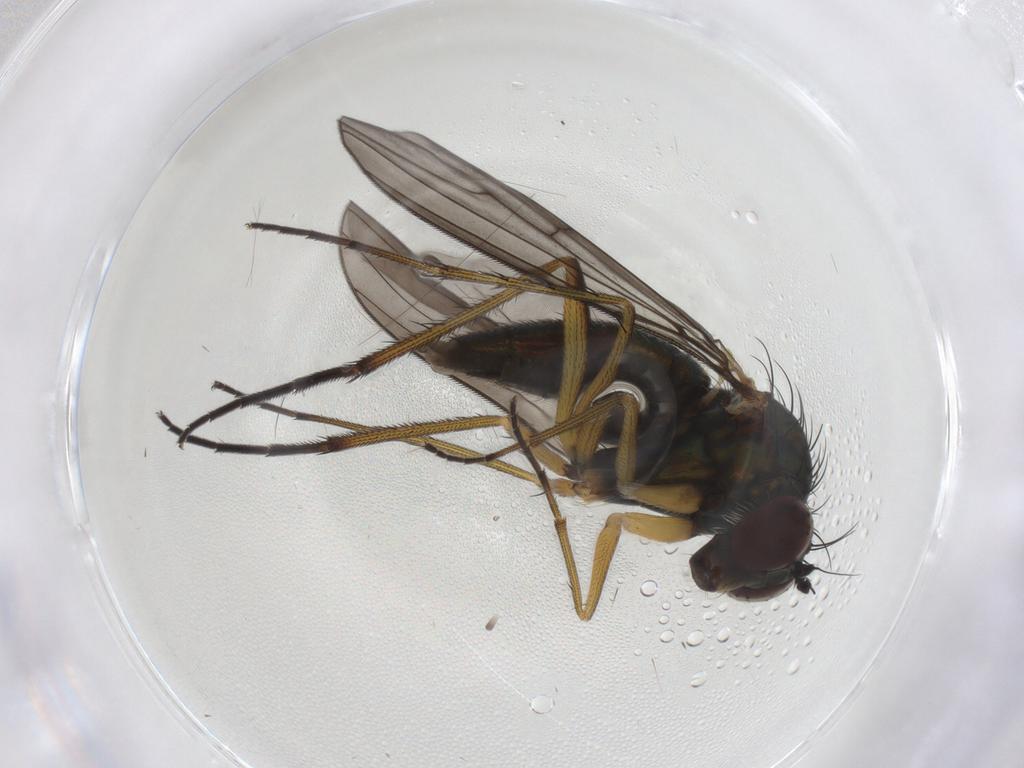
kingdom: Animalia
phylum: Arthropoda
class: Insecta
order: Diptera
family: Dolichopodidae
